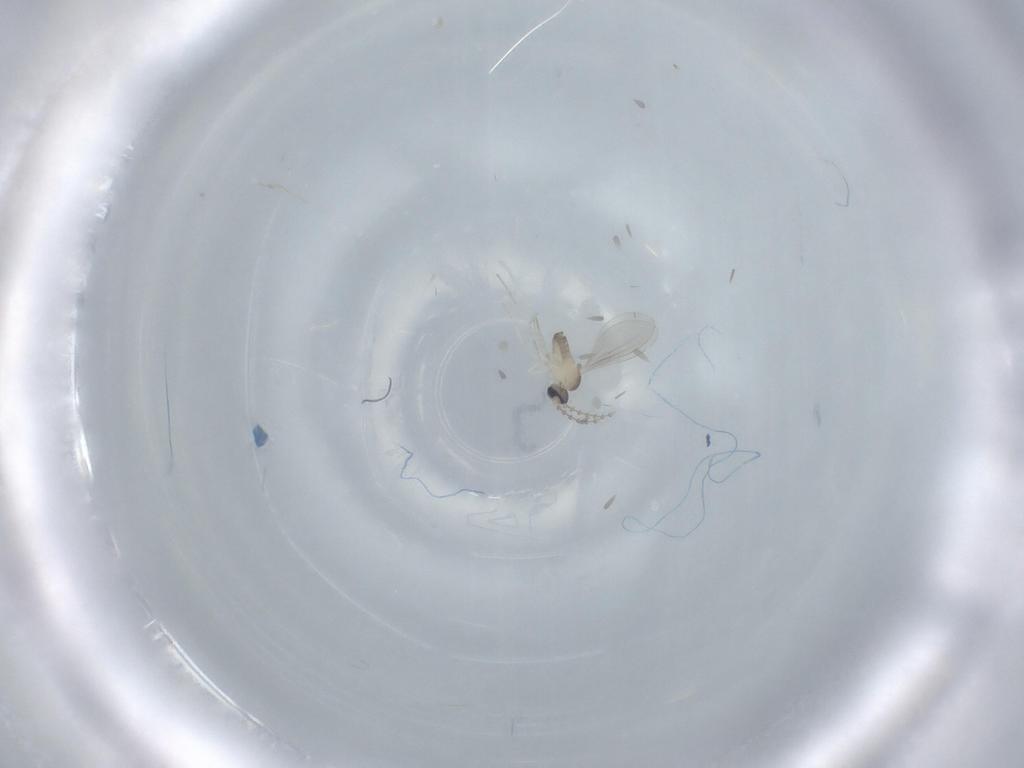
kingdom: Animalia
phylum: Arthropoda
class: Insecta
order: Diptera
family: Cecidomyiidae
